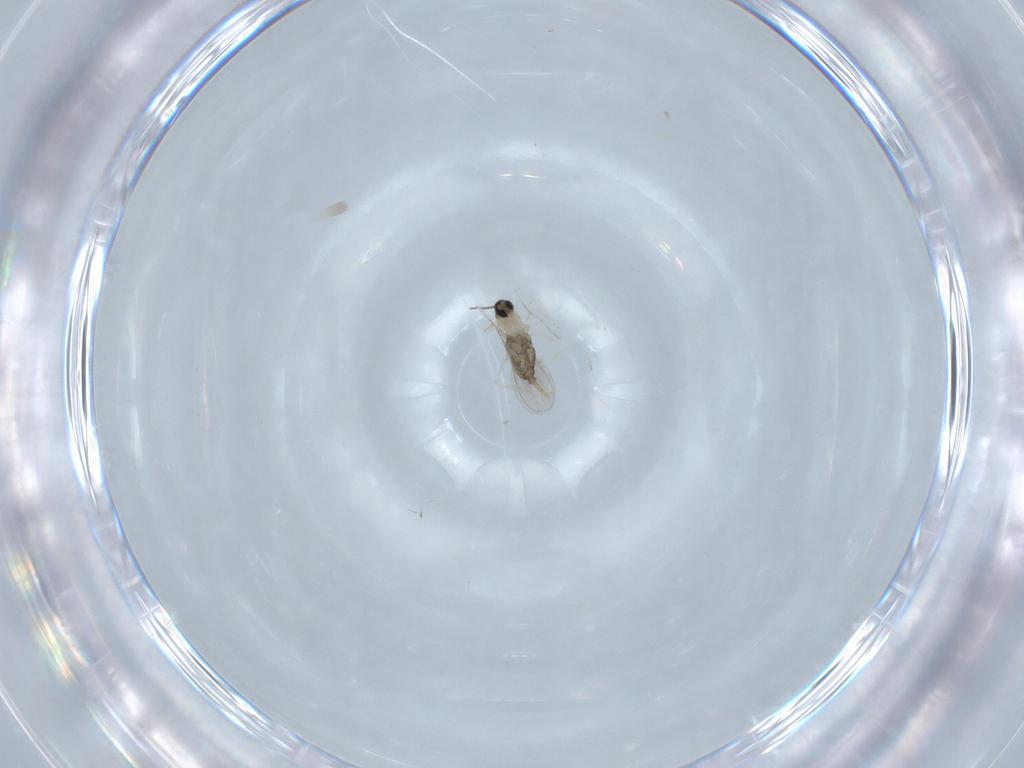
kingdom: Animalia
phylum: Arthropoda
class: Insecta
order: Diptera
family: Cecidomyiidae
